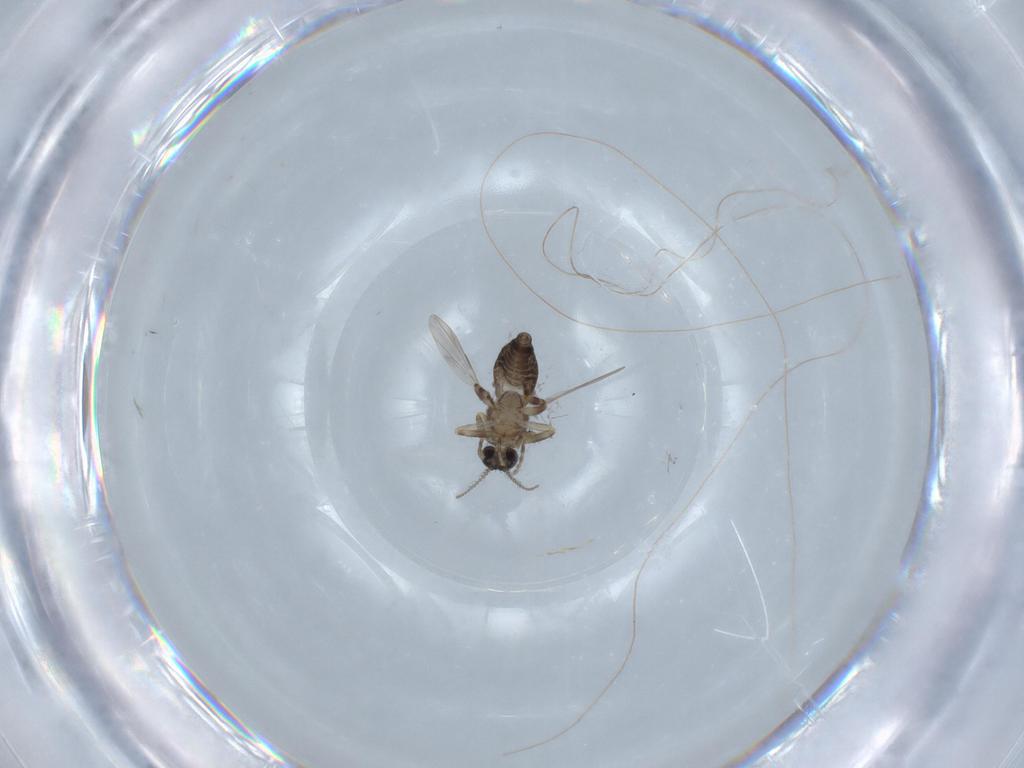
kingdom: Animalia
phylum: Arthropoda
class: Insecta
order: Diptera
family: Ceratopogonidae
